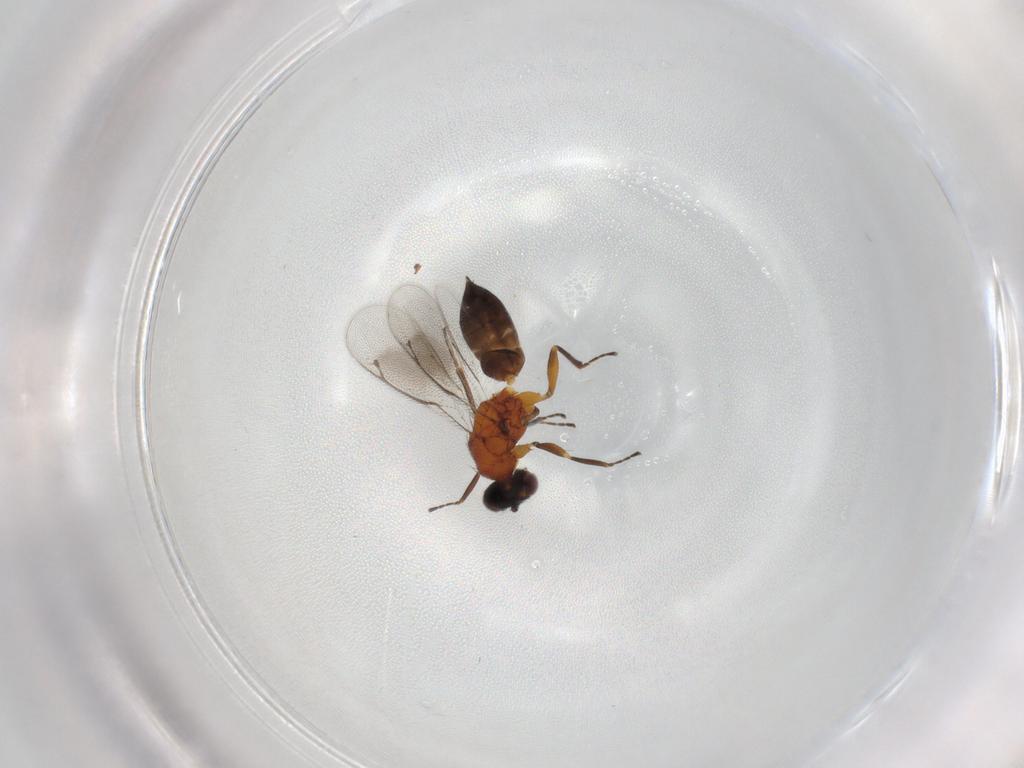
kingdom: Animalia
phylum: Arthropoda
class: Insecta
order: Hymenoptera
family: Eulophidae
